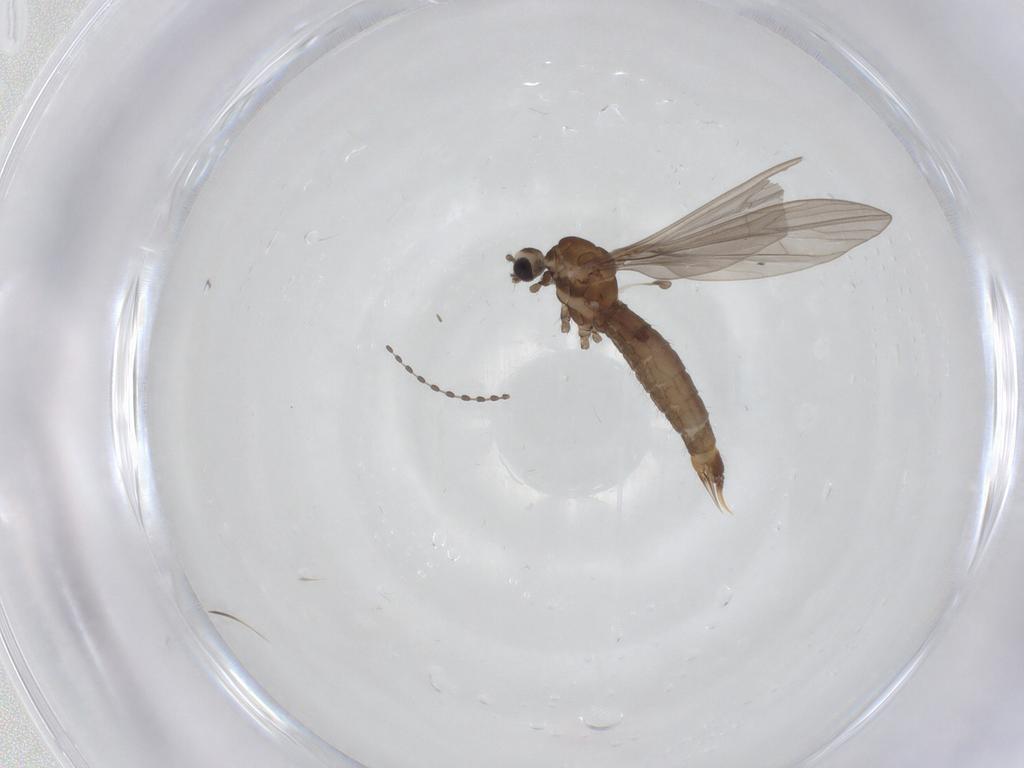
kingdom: Animalia
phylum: Arthropoda
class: Insecta
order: Diptera
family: Limoniidae
